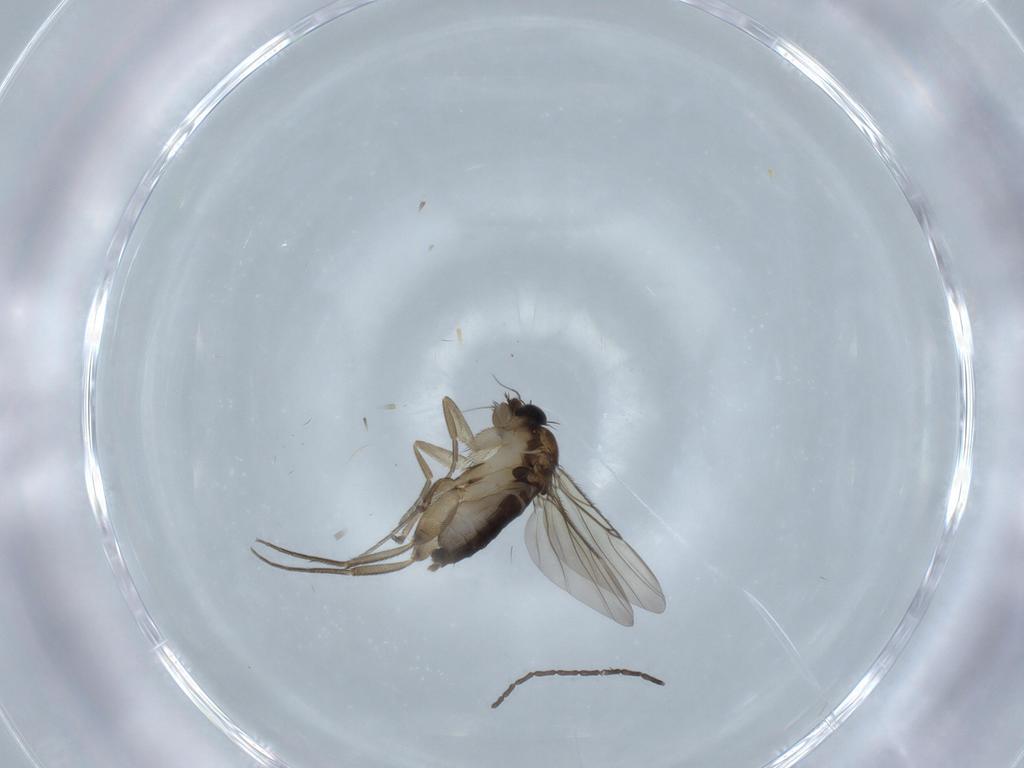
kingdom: Animalia
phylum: Arthropoda
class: Insecta
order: Diptera
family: Phoridae
